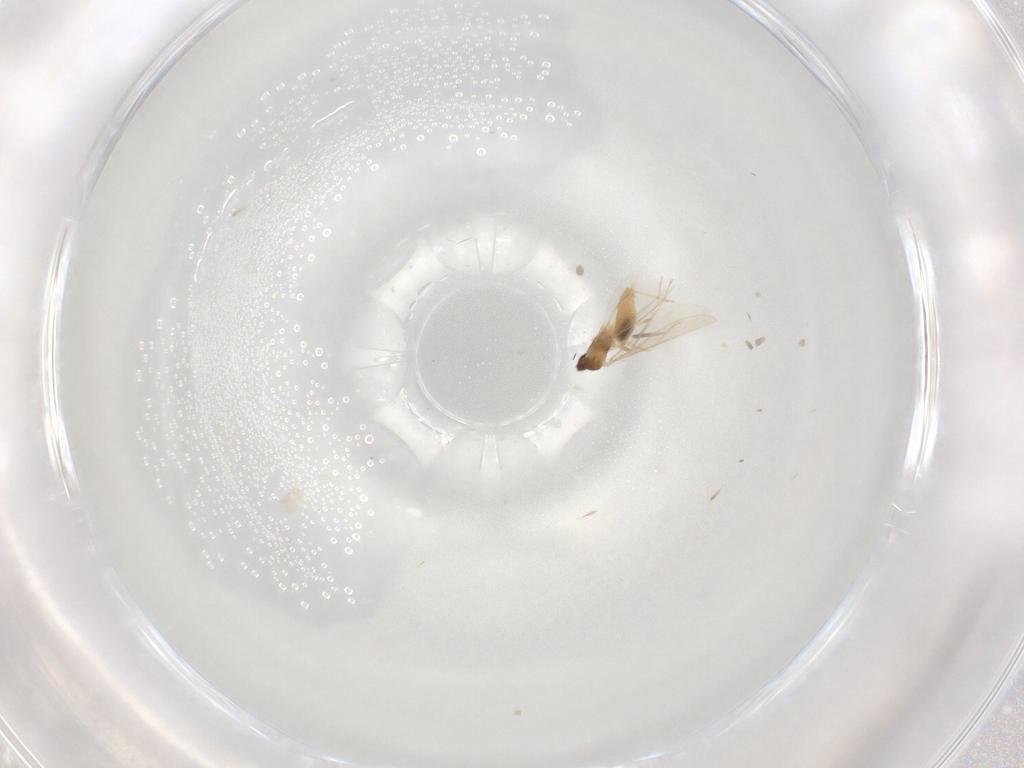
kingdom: Animalia
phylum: Arthropoda
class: Insecta
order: Diptera
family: Cecidomyiidae
